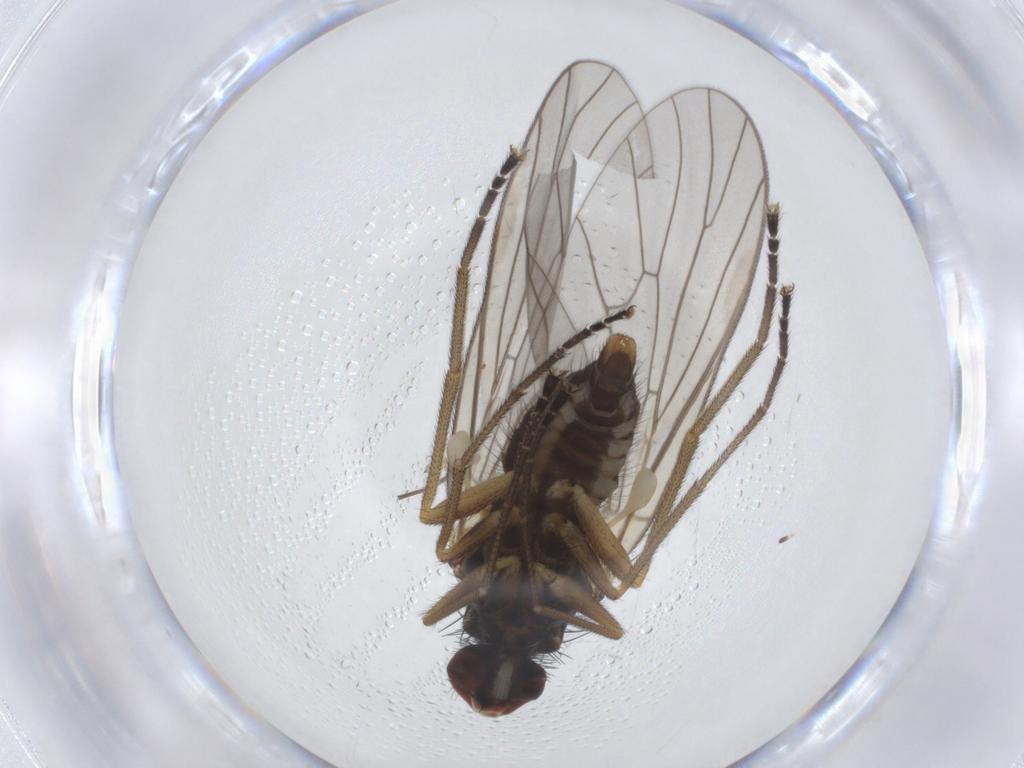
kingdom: Animalia
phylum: Arthropoda
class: Insecta
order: Diptera
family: Brachystomatidae
